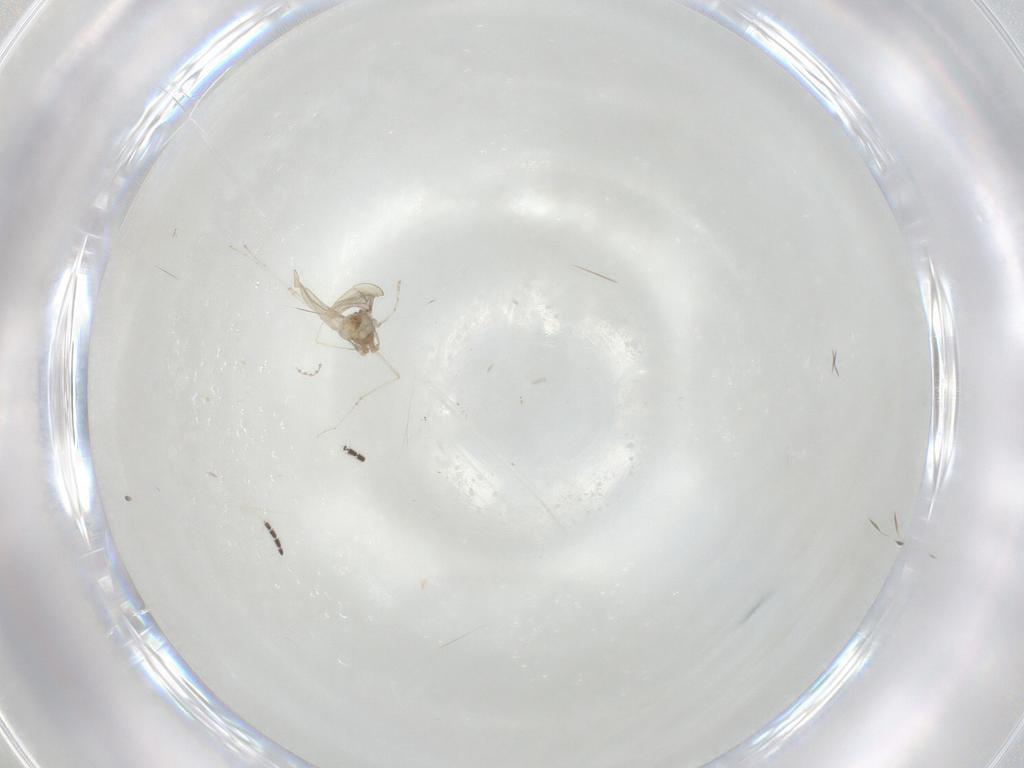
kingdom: Animalia
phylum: Arthropoda
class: Insecta
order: Diptera
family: Cecidomyiidae
